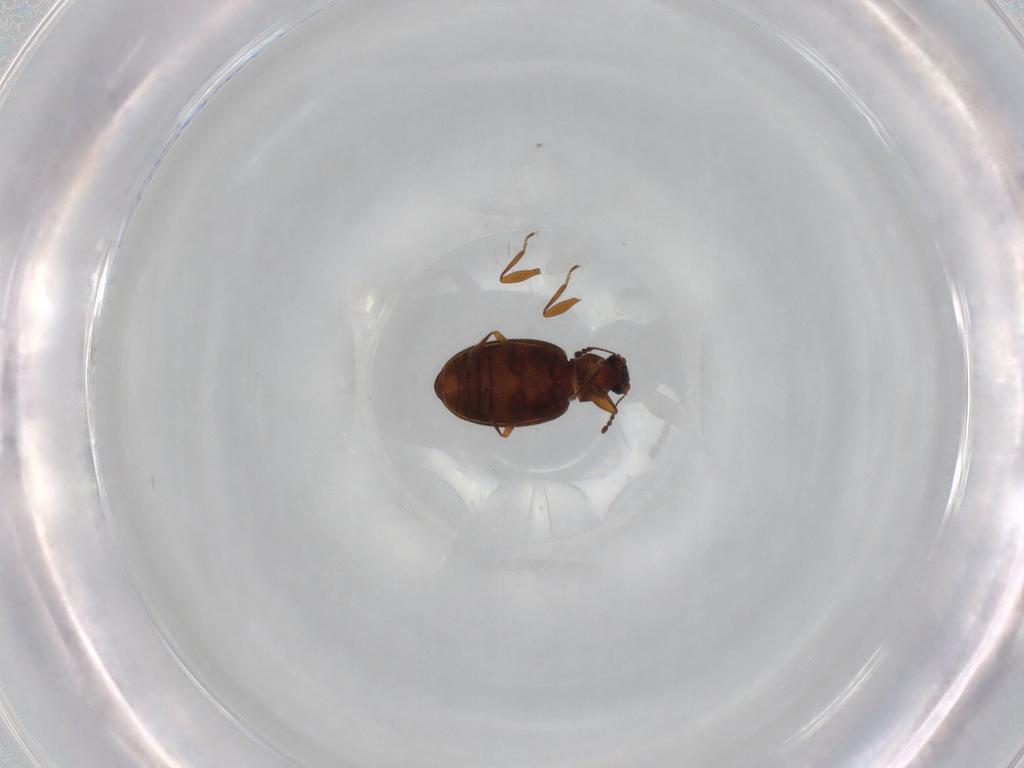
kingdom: Animalia
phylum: Arthropoda
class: Insecta
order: Coleoptera
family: Latridiidae
